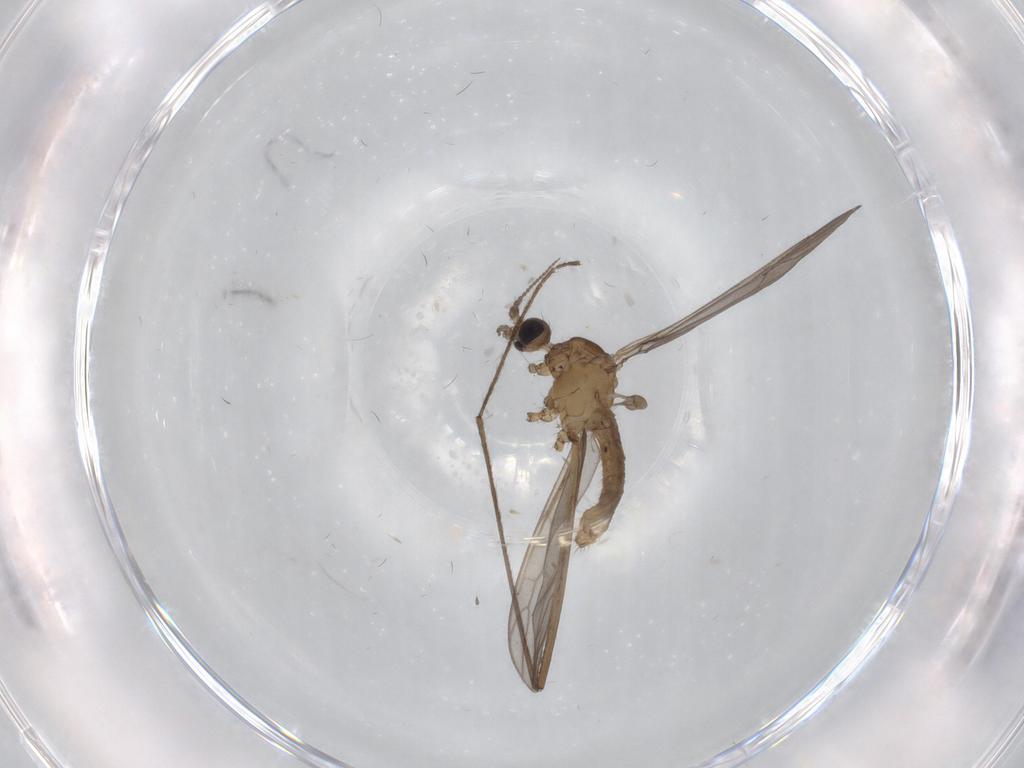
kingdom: Animalia
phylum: Arthropoda
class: Insecta
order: Diptera
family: Limoniidae
